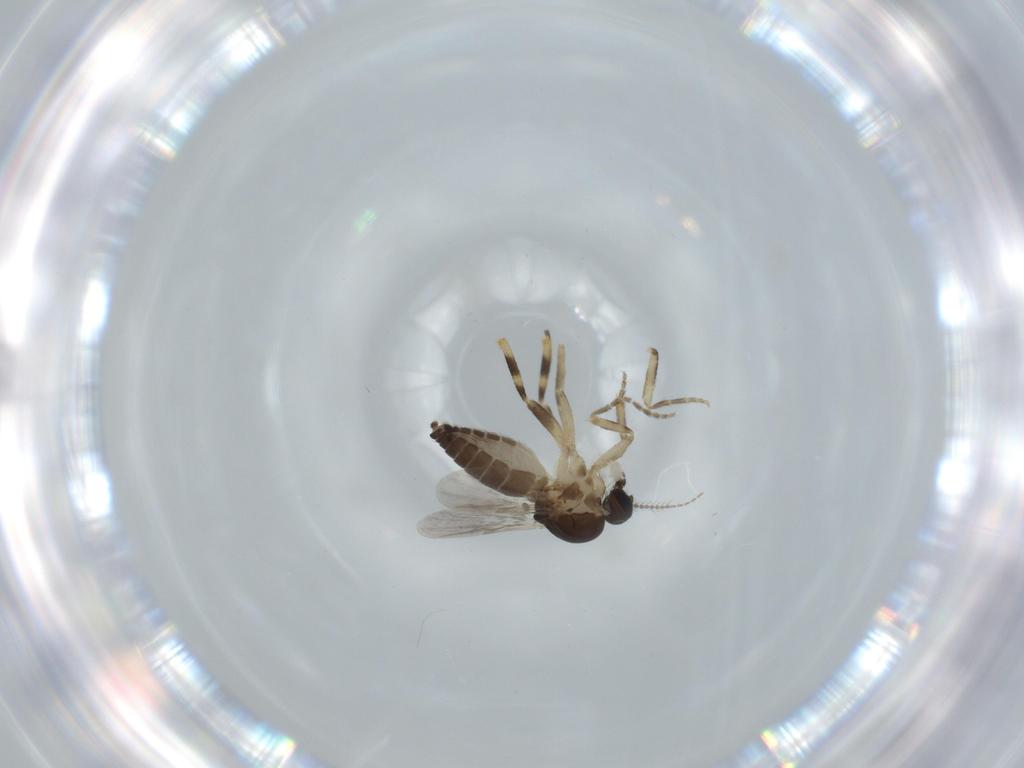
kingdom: Animalia
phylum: Arthropoda
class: Insecta
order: Diptera
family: Ceratopogonidae
